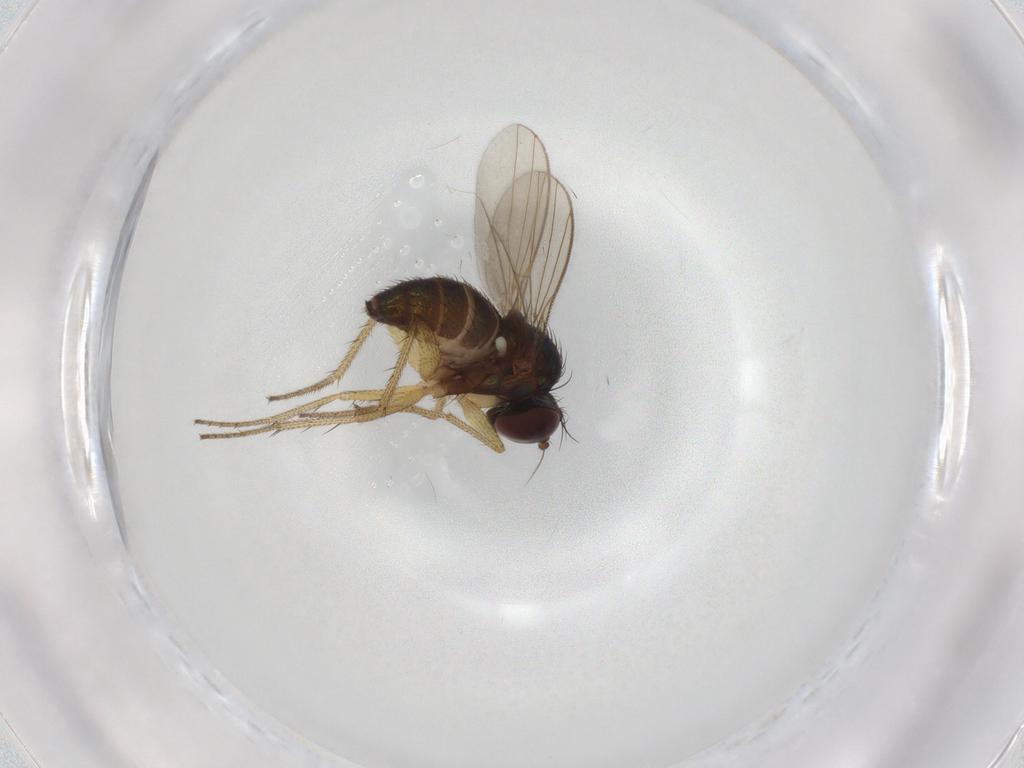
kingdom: Animalia
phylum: Arthropoda
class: Insecta
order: Diptera
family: Dolichopodidae
